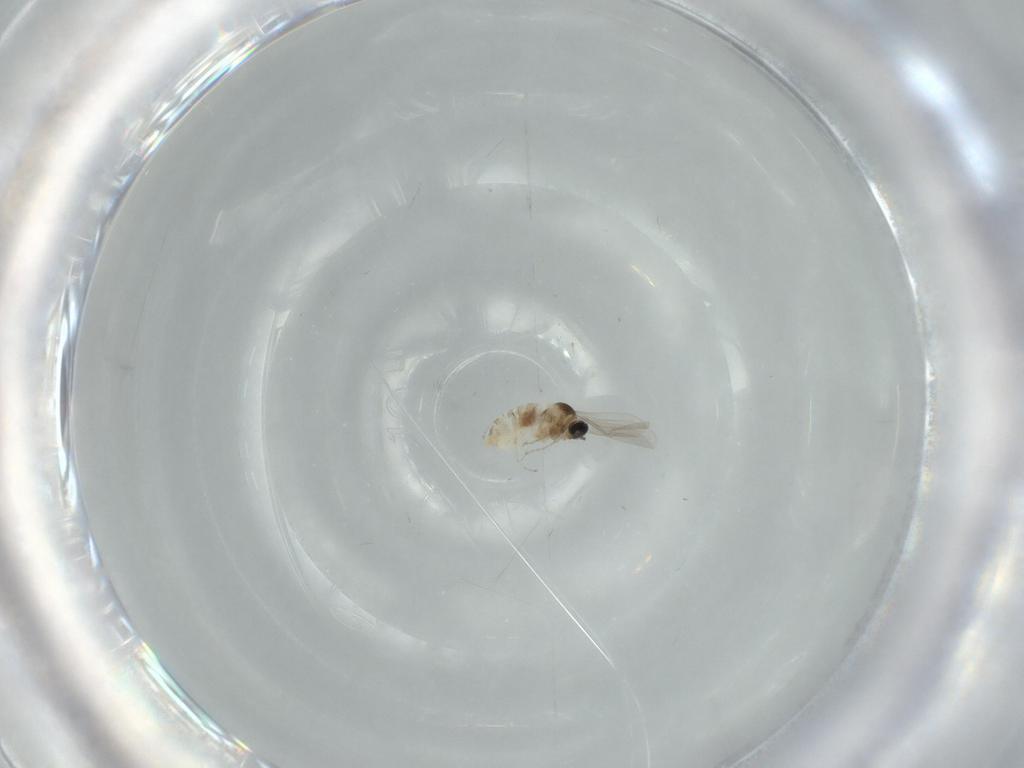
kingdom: Animalia
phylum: Arthropoda
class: Insecta
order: Diptera
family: Cecidomyiidae
